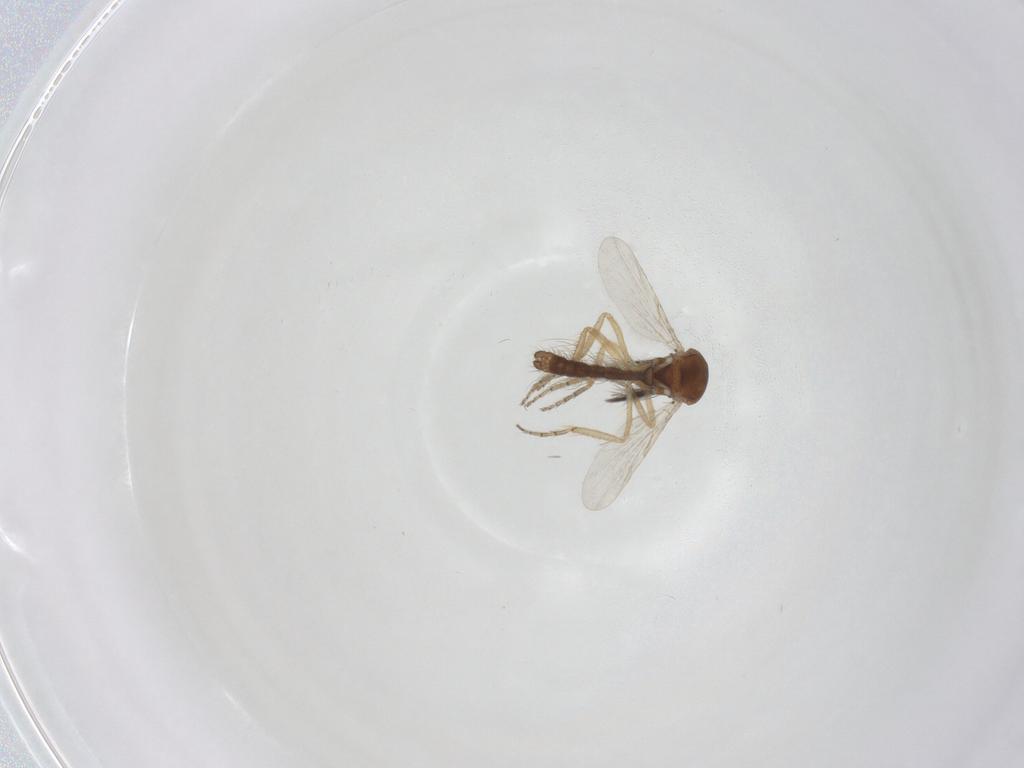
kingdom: Animalia
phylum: Arthropoda
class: Insecta
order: Diptera
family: Ceratopogonidae
